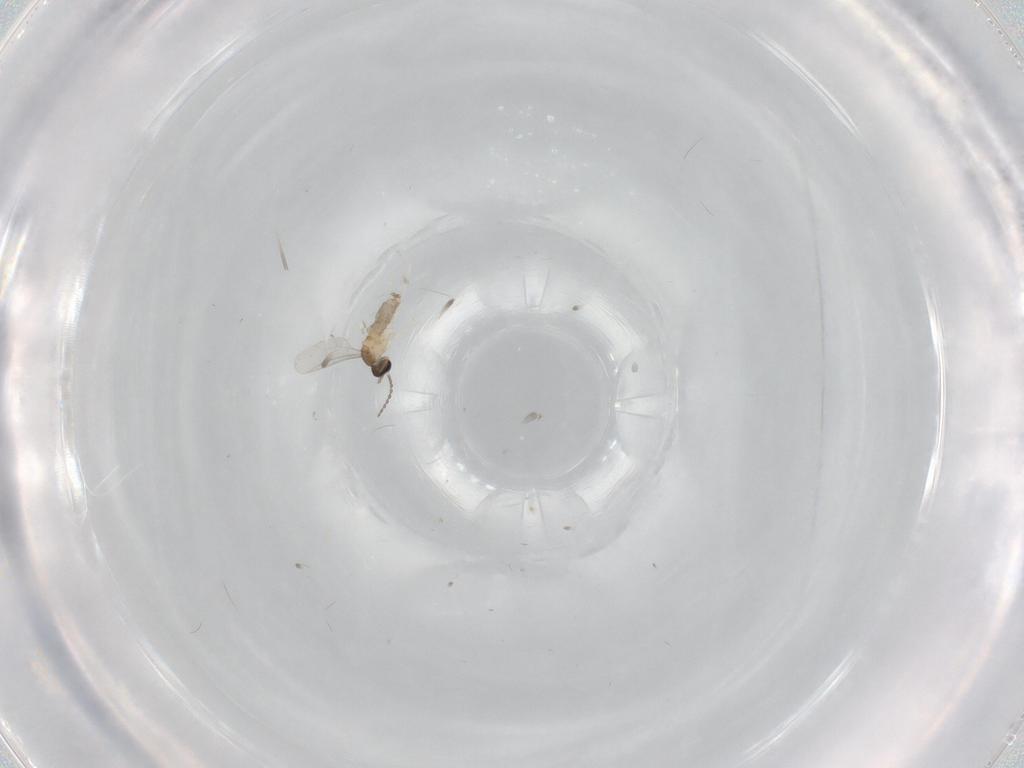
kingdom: Animalia
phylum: Arthropoda
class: Insecta
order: Diptera
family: Cecidomyiidae
